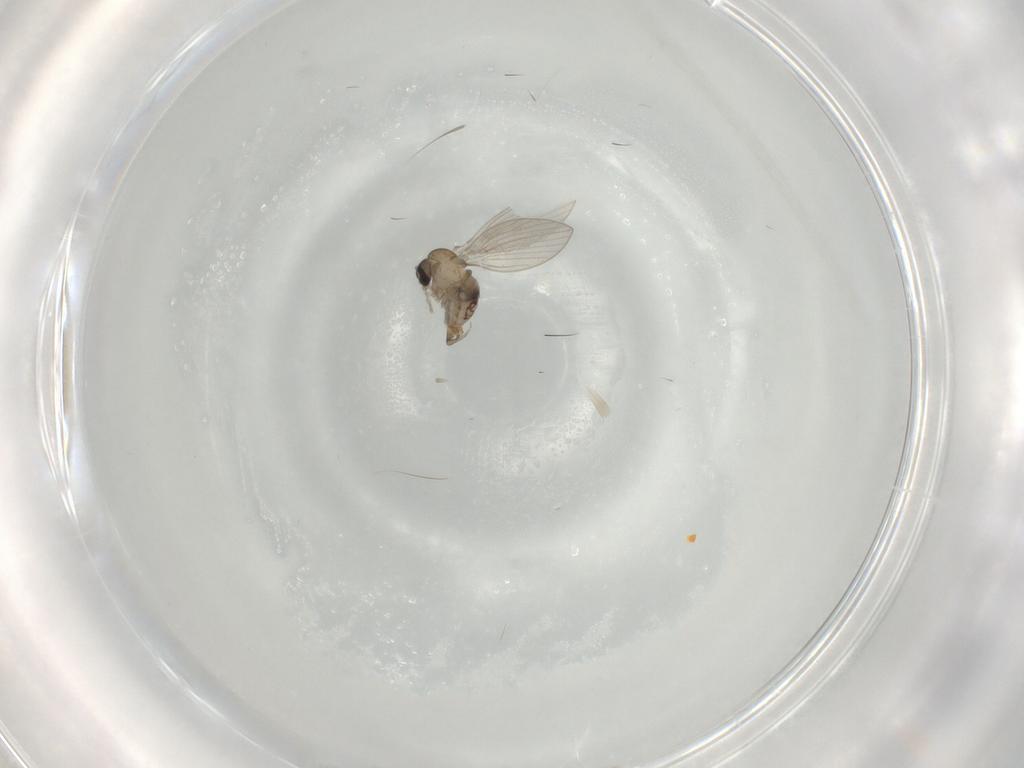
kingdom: Animalia
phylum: Arthropoda
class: Insecta
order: Diptera
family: Psychodidae
